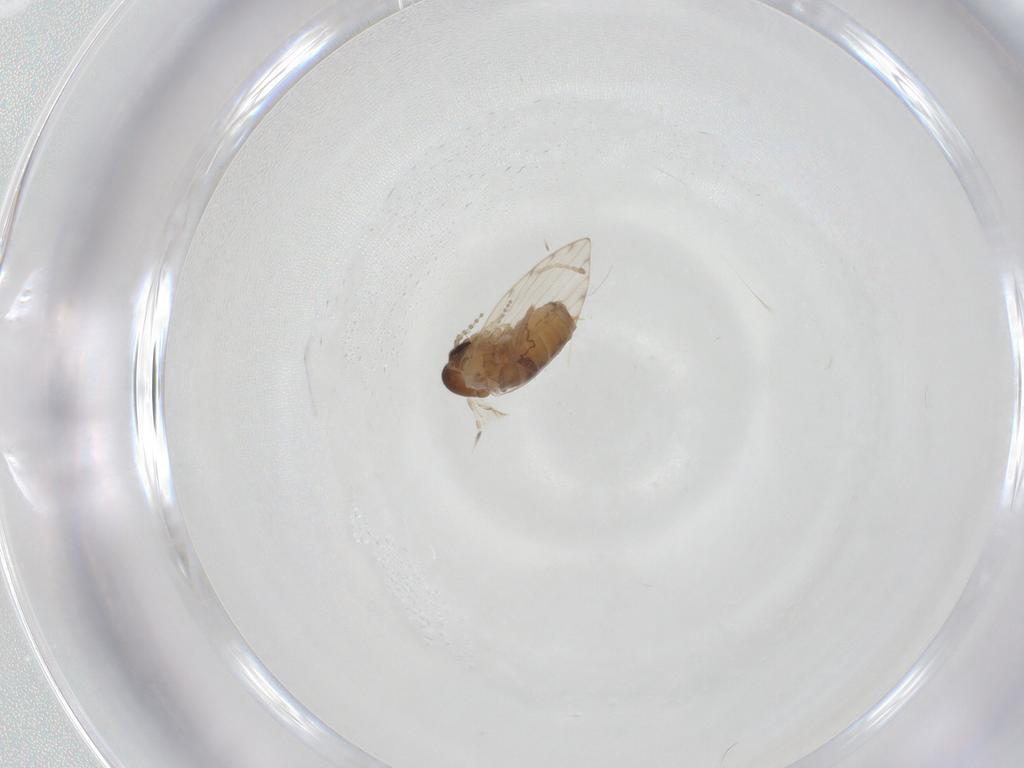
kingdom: Animalia
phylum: Arthropoda
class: Insecta
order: Diptera
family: Psychodidae
